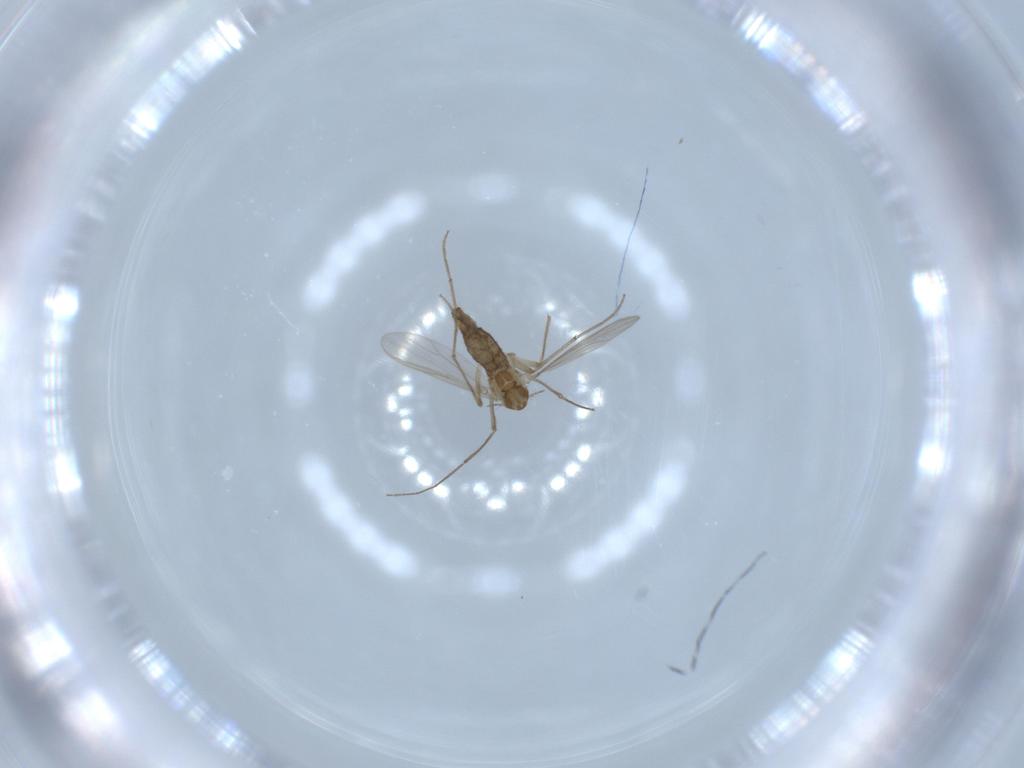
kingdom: Animalia
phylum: Arthropoda
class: Insecta
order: Diptera
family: Chironomidae
